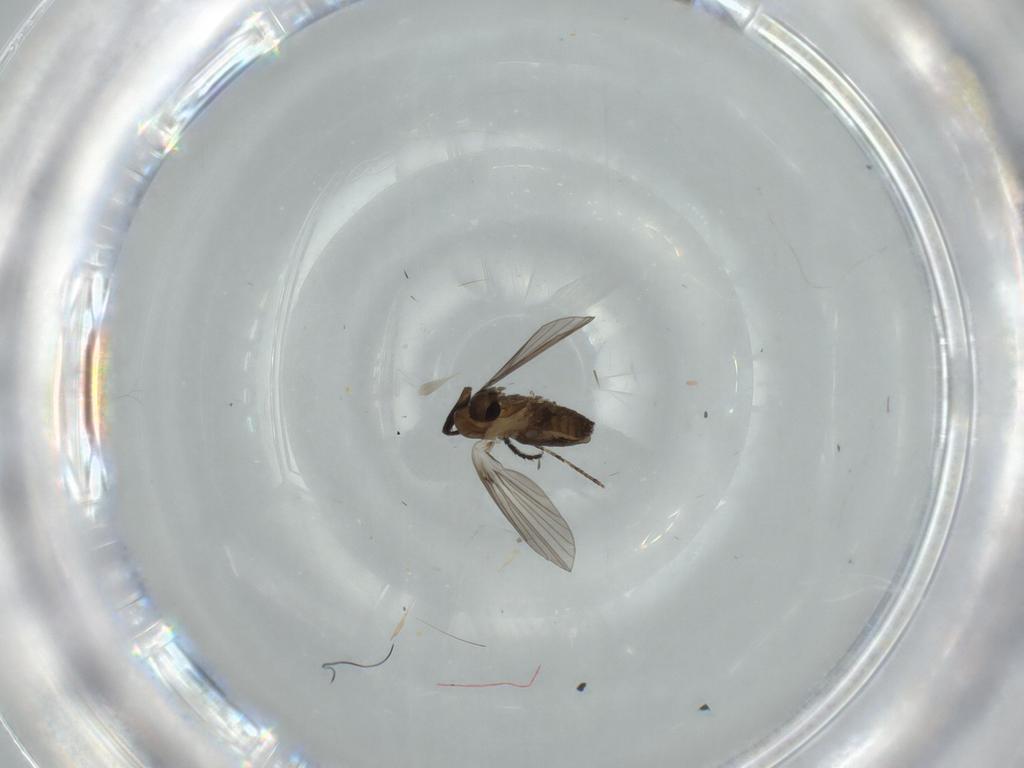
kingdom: Animalia
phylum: Arthropoda
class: Insecta
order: Diptera
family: Psychodidae
